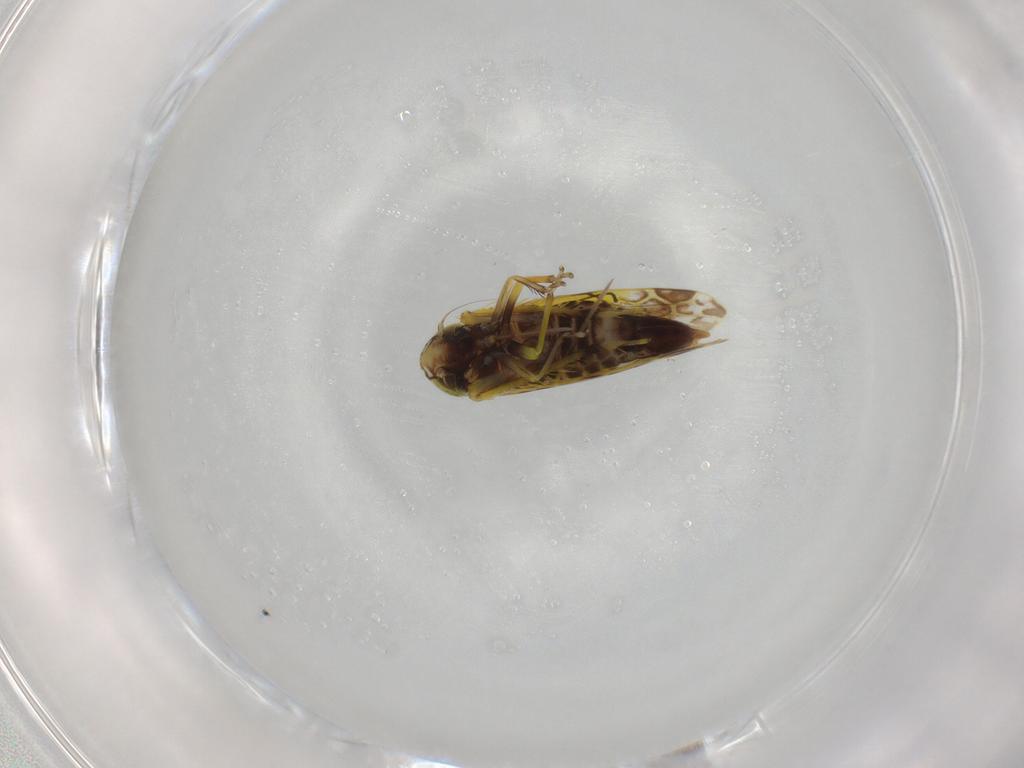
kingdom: Animalia
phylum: Arthropoda
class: Insecta
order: Hemiptera
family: Cicadellidae
